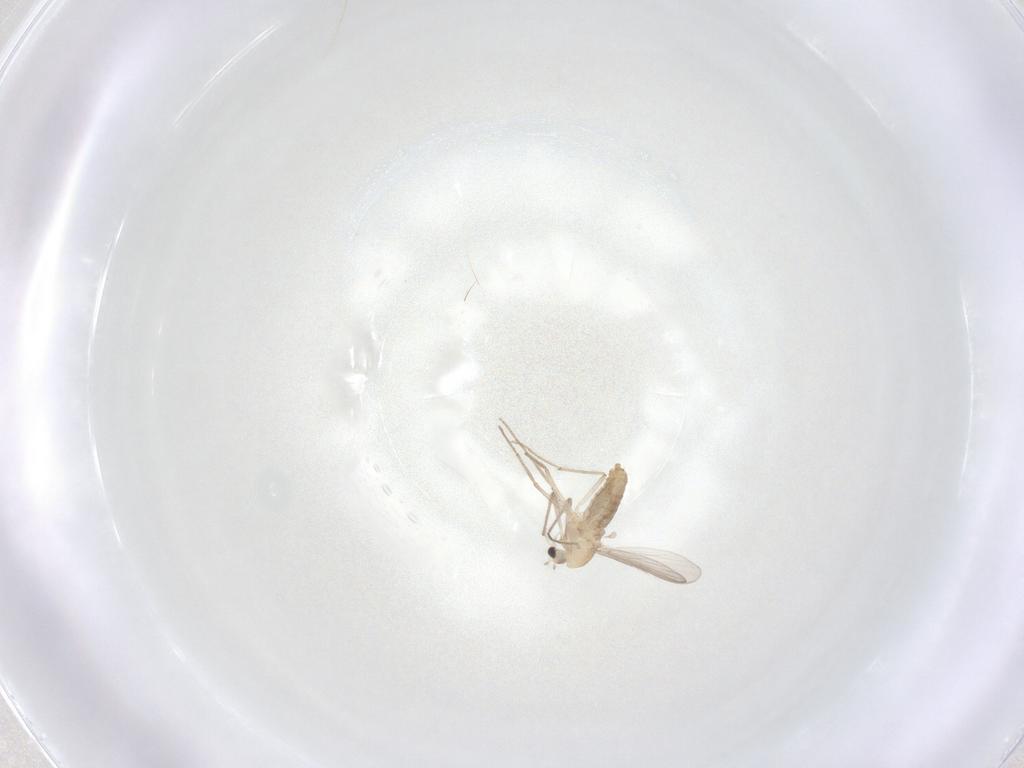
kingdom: Animalia
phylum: Arthropoda
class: Insecta
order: Diptera
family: Chironomidae
